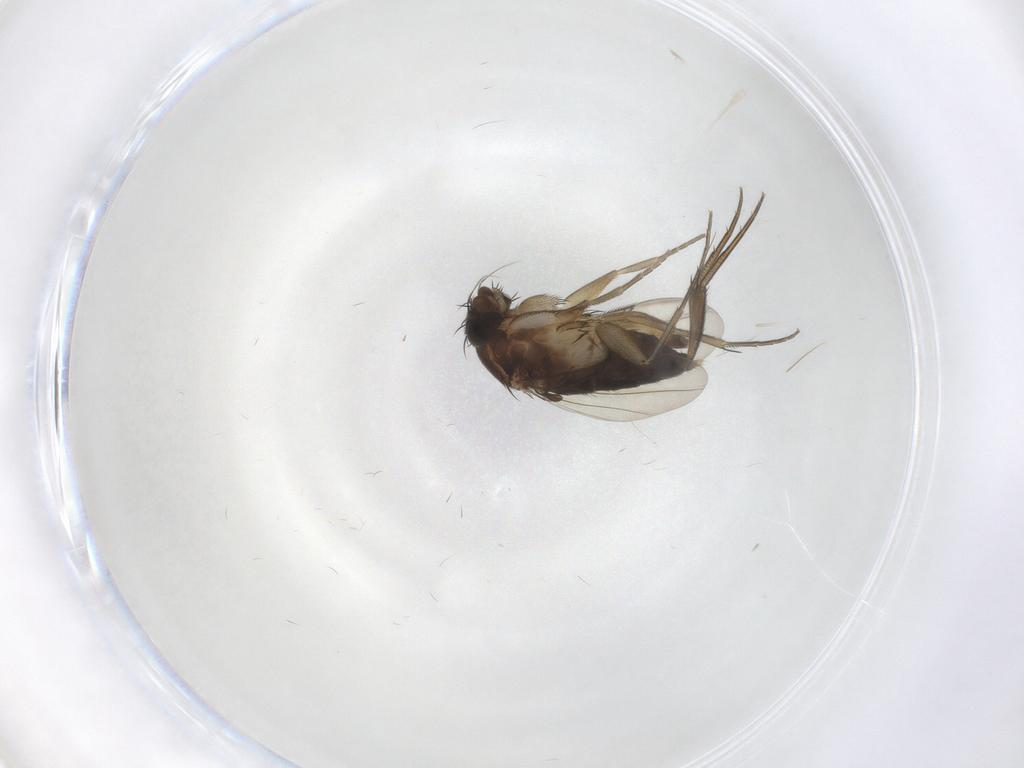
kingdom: Animalia
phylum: Arthropoda
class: Insecta
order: Diptera
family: Phoridae
